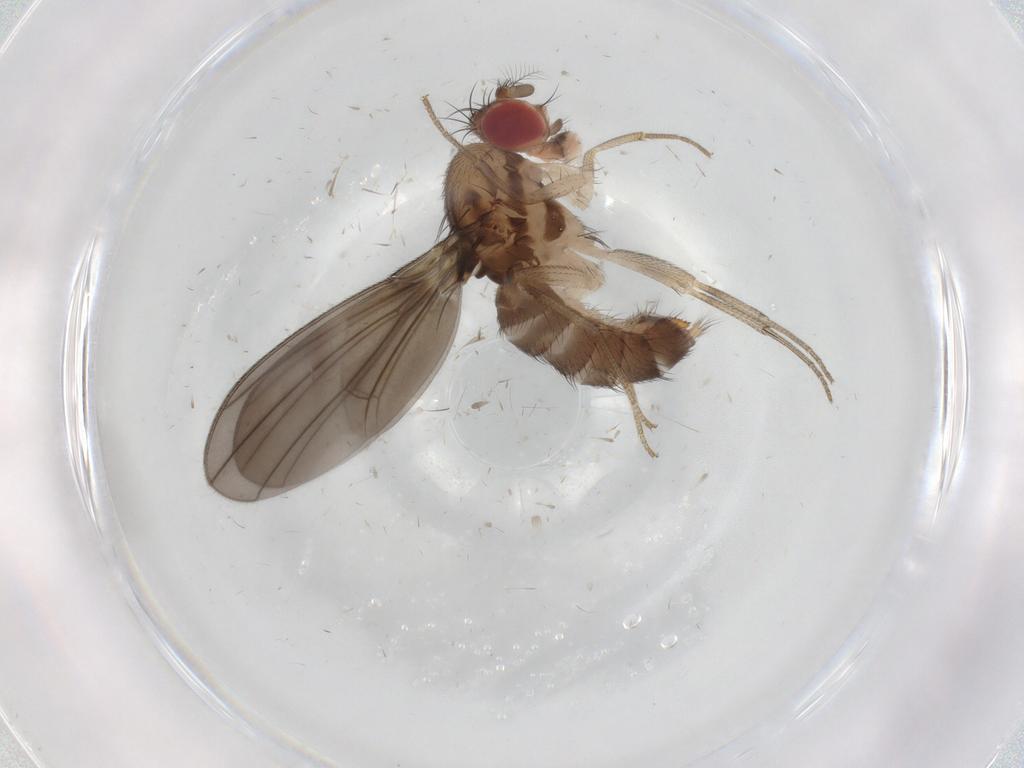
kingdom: Animalia
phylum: Arthropoda
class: Insecta
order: Diptera
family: Drosophilidae
